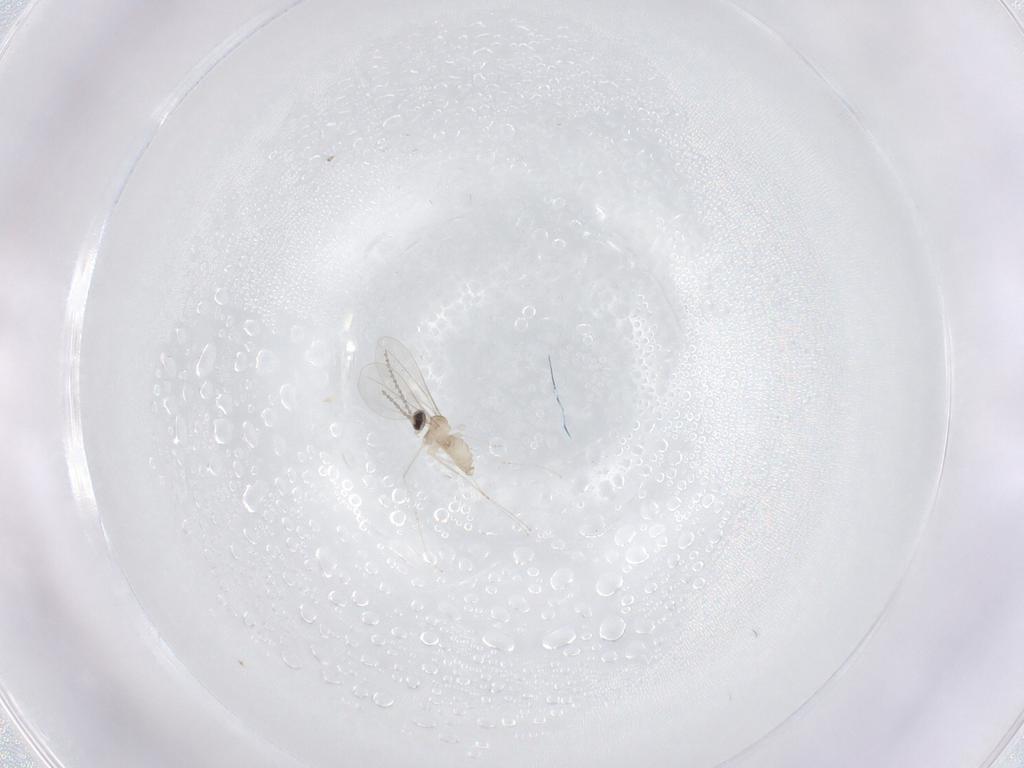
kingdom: Animalia
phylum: Arthropoda
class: Insecta
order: Diptera
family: Cecidomyiidae
